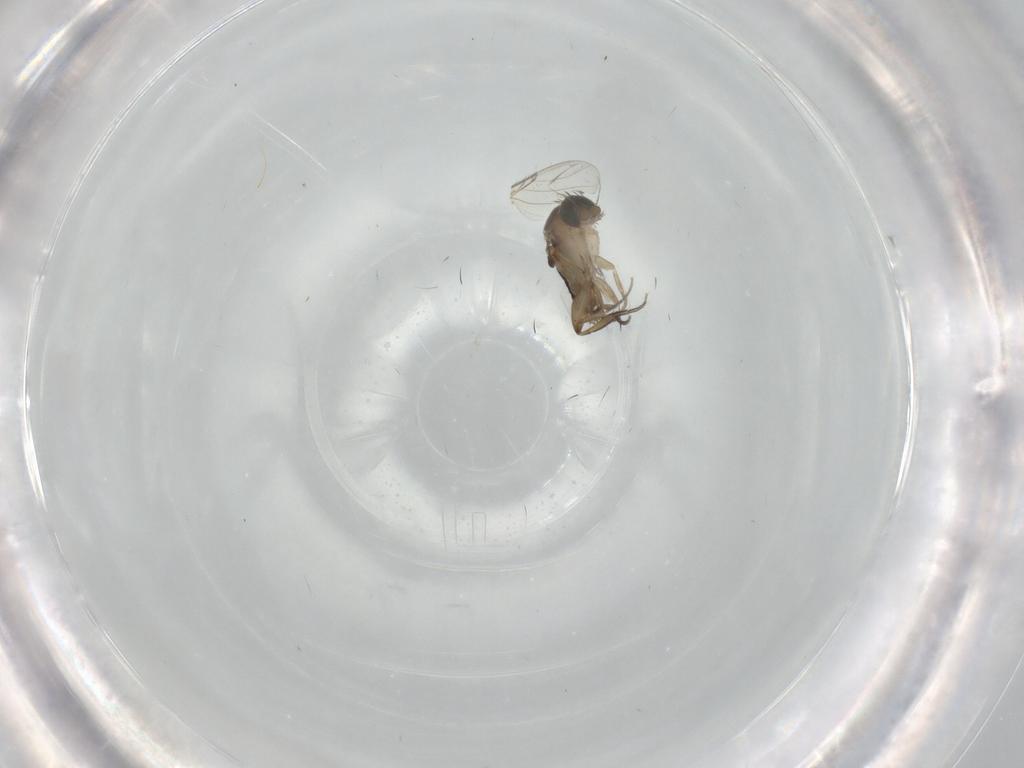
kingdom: Animalia
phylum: Arthropoda
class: Insecta
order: Diptera
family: Phoridae
